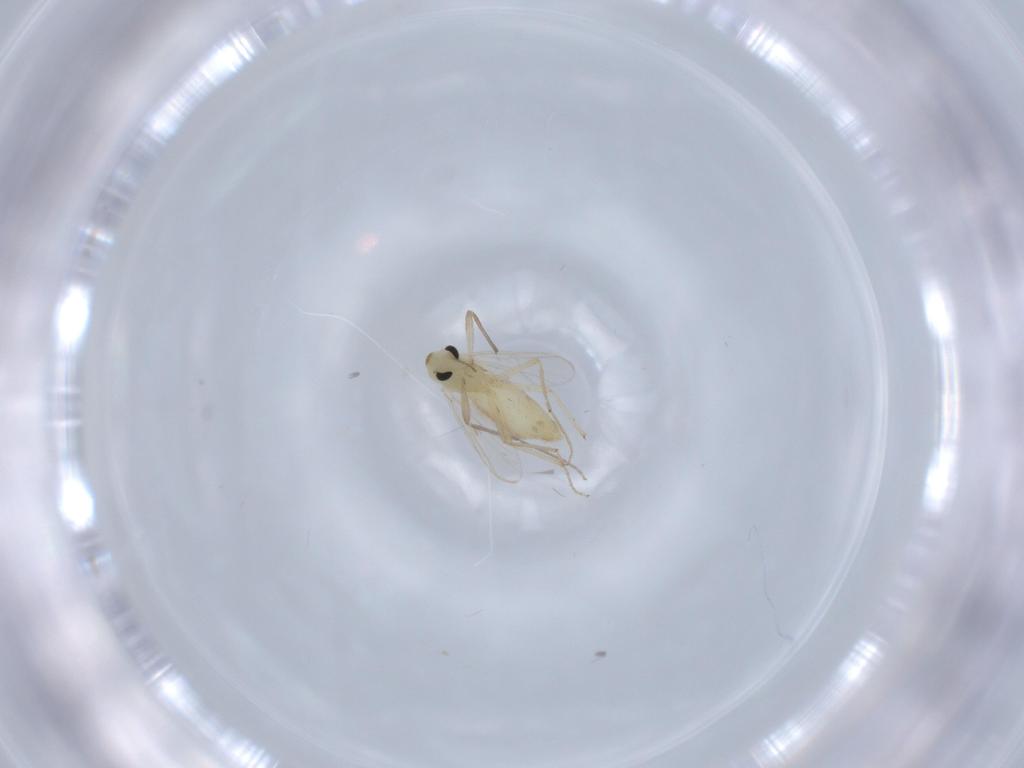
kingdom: Animalia
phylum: Arthropoda
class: Insecta
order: Diptera
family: Chironomidae
